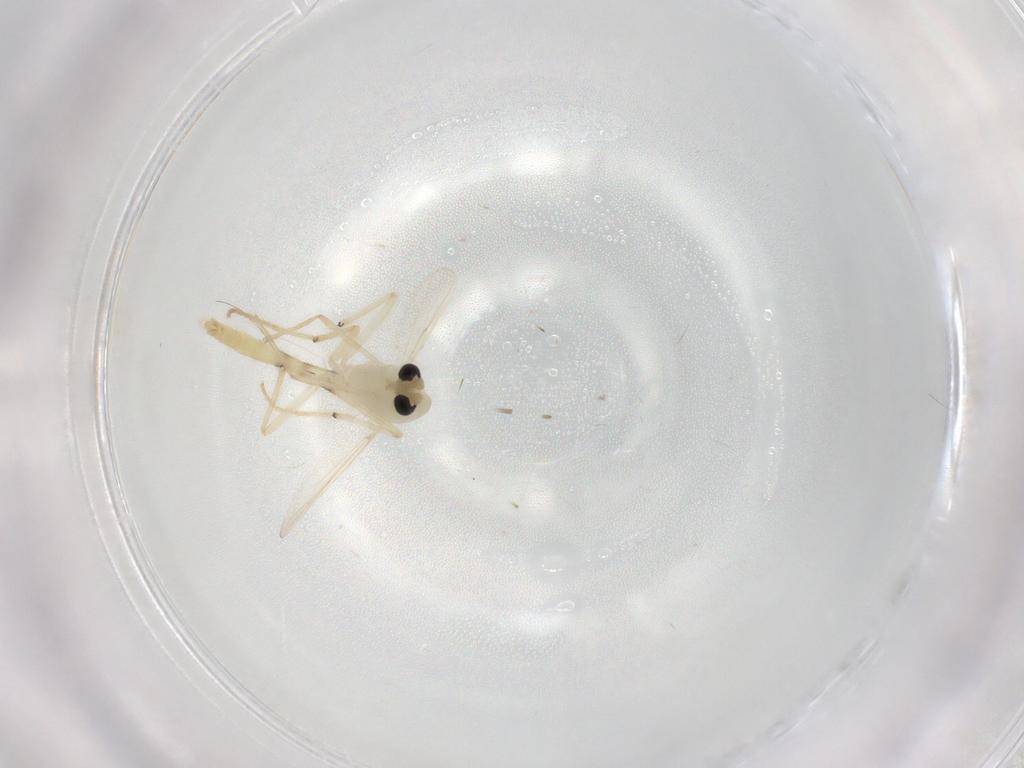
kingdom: Animalia
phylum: Arthropoda
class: Insecta
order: Diptera
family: Chironomidae
